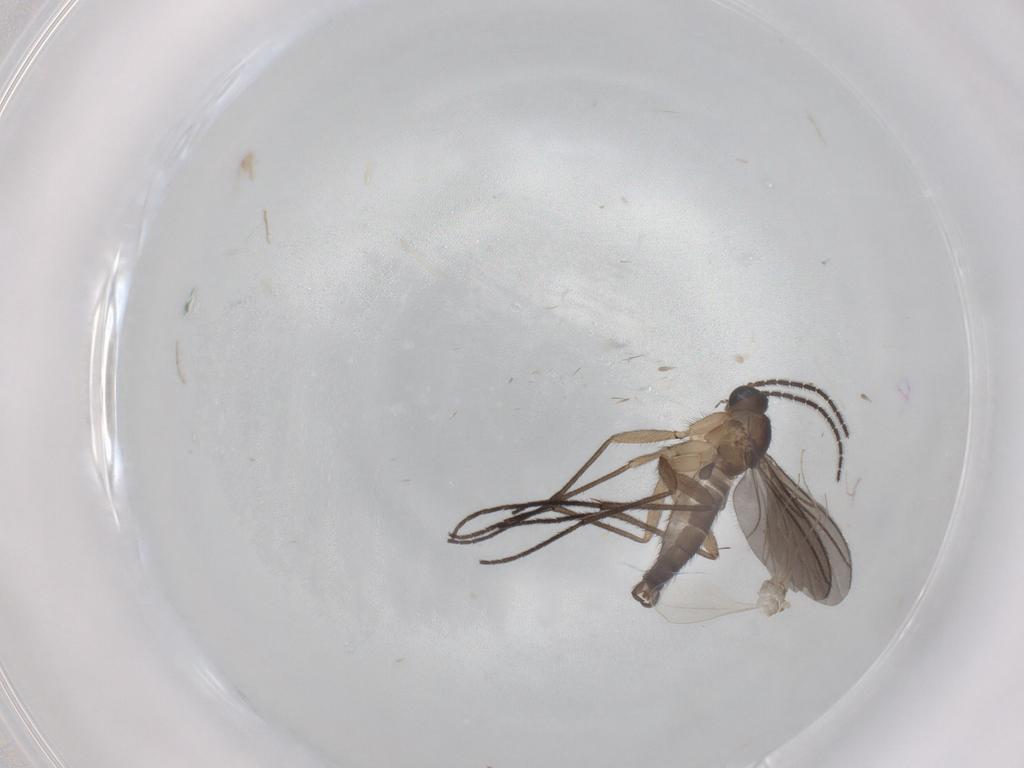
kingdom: Animalia
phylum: Arthropoda
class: Insecta
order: Diptera
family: Sciaridae
